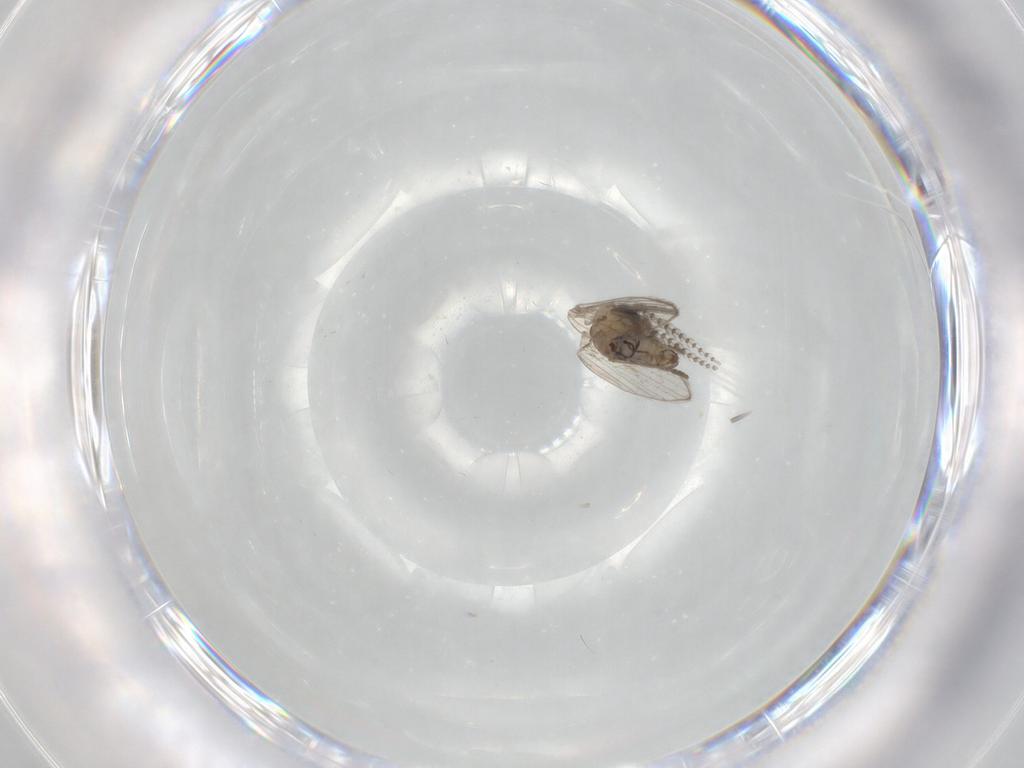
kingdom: Animalia
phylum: Arthropoda
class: Insecta
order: Diptera
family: Psychodidae
